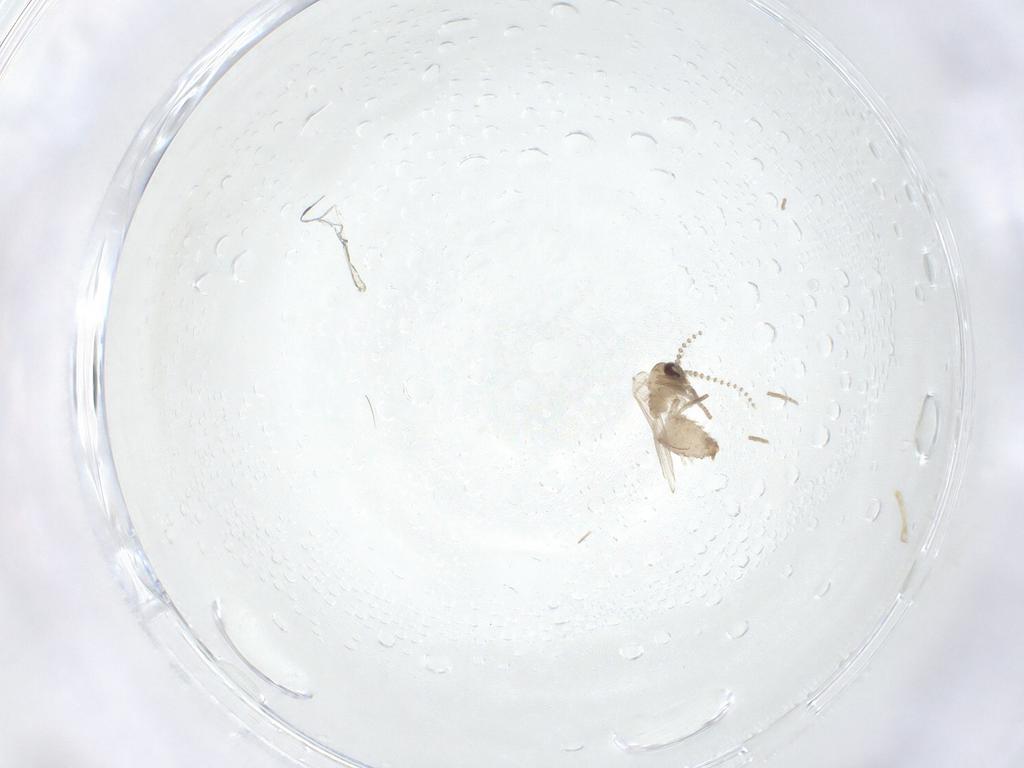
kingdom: Animalia
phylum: Arthropoda
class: Insecta
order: Diptera
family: Psychodidae
